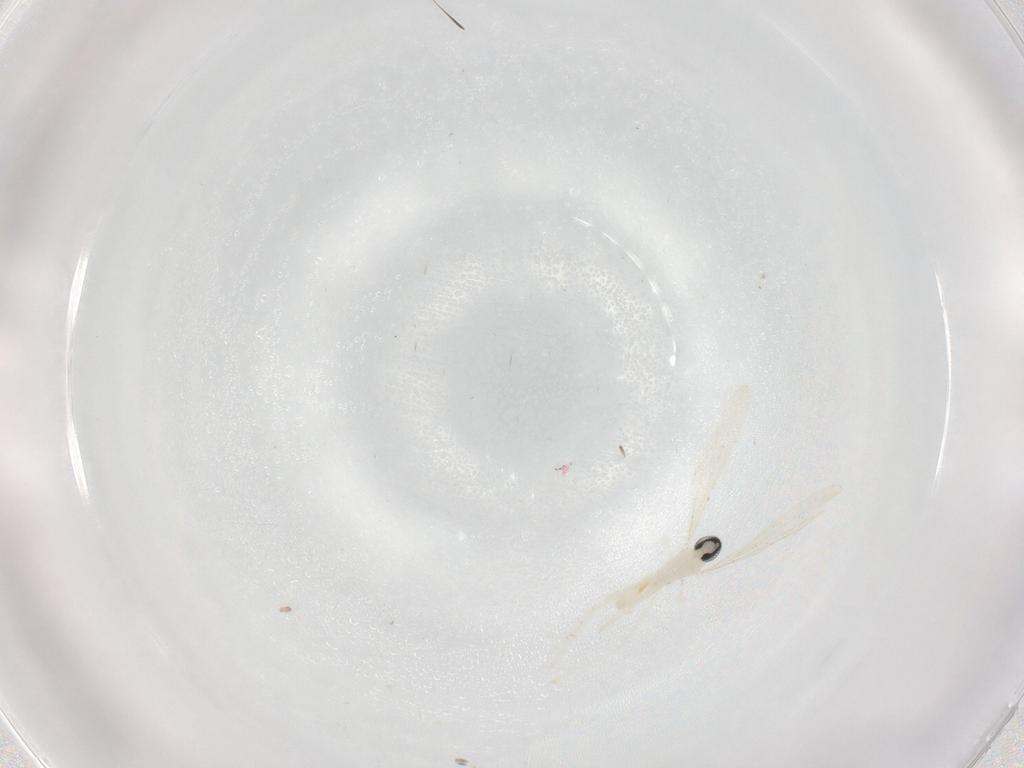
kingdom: Animalia
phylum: Arthropoda
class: Insecta
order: Diptera
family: Cecidomyiidae
